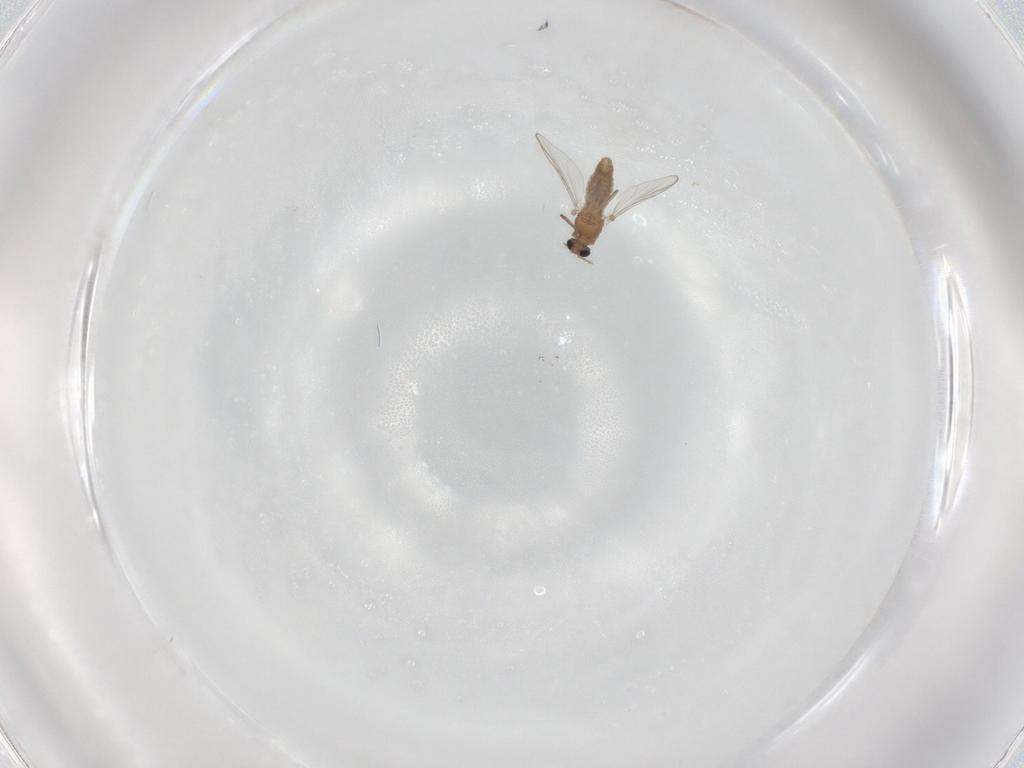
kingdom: Animalia
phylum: Arthropoda
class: Insecta
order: Diptera
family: Chironomidae
